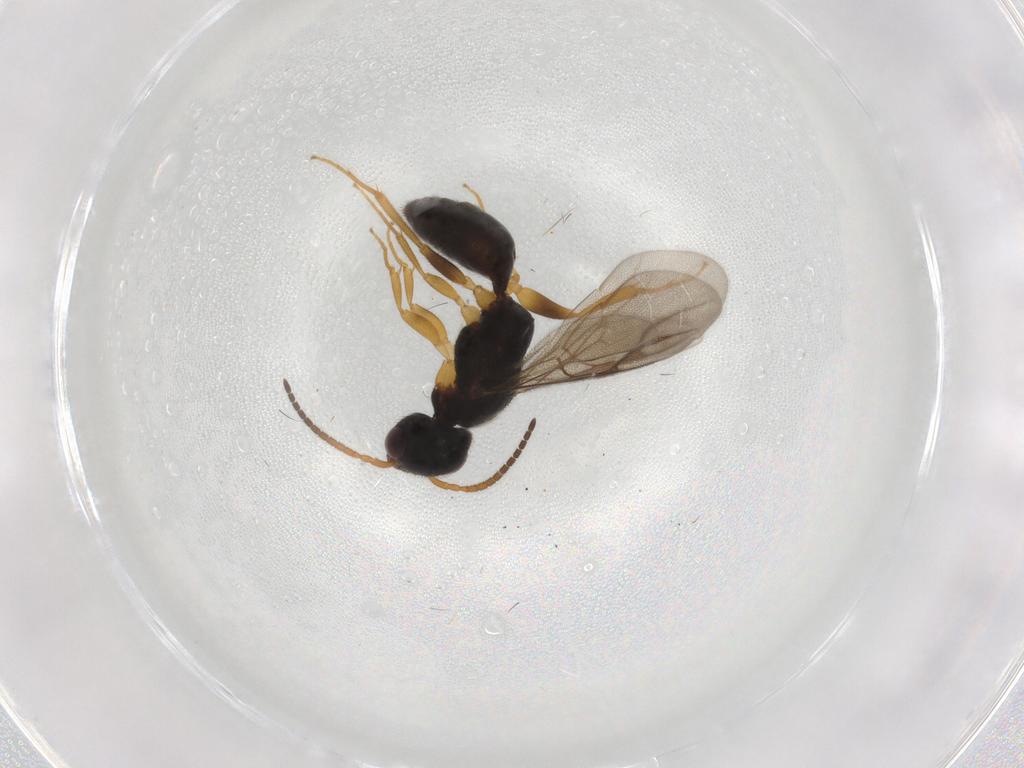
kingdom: Animalia
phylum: Arthropoda
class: Insecta
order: Hymenoptera
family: Bethylidae
